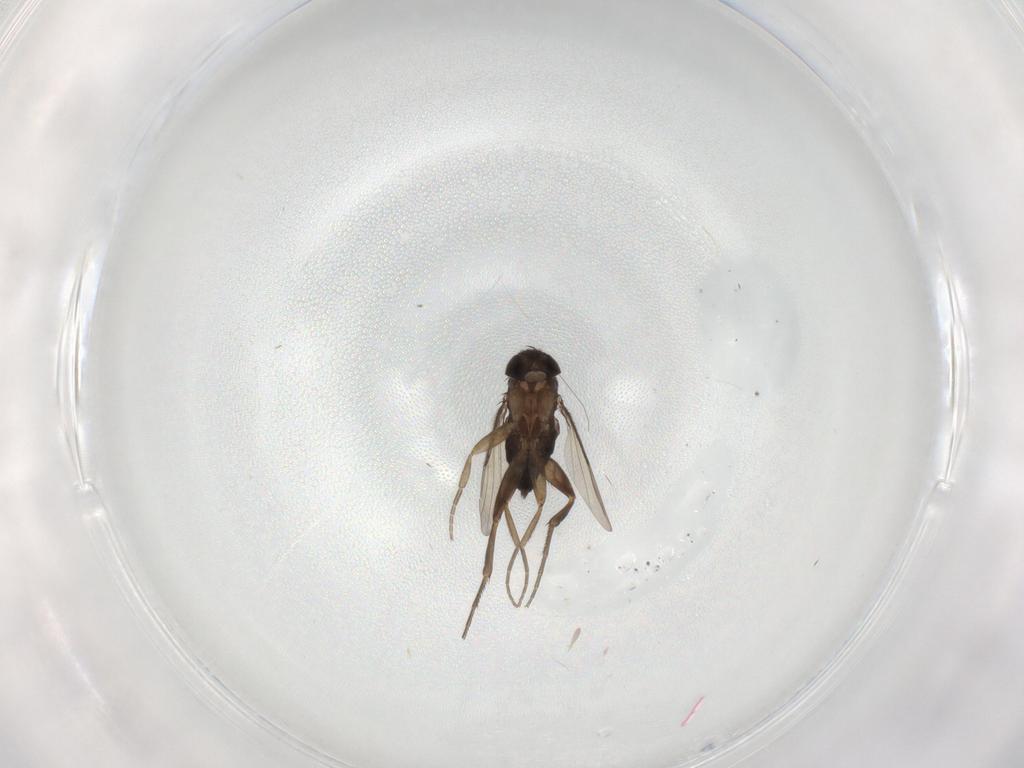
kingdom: Animalia
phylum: Arthropoda
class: Insecta
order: Diptera
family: Phoridae
